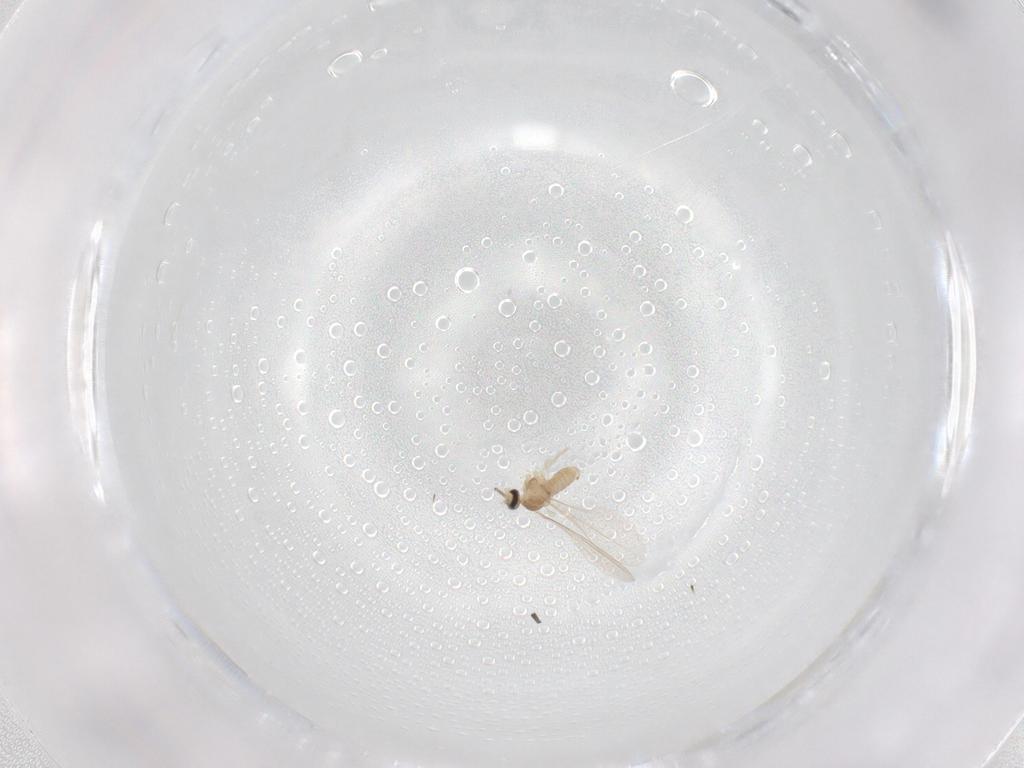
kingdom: Animalia
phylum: Arthropoda
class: Insecta
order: Diptera
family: Cecidomyiidae
